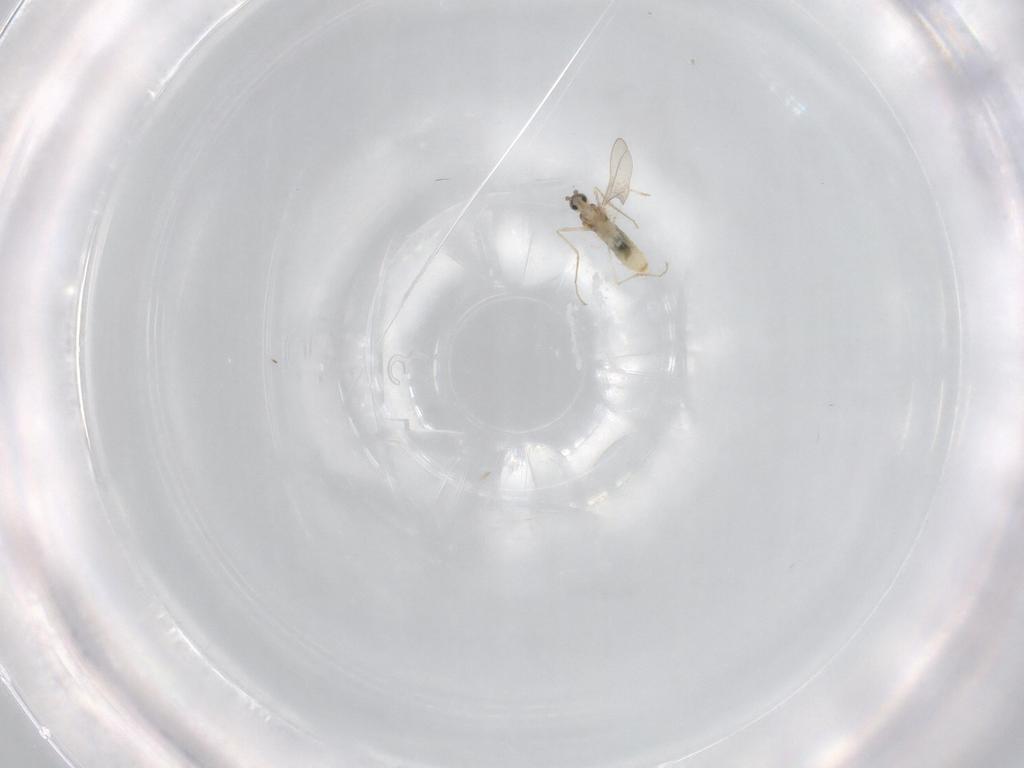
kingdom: Animalia
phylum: Arthropoda
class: Insecta
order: Diptera
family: Cecidomyiidae
